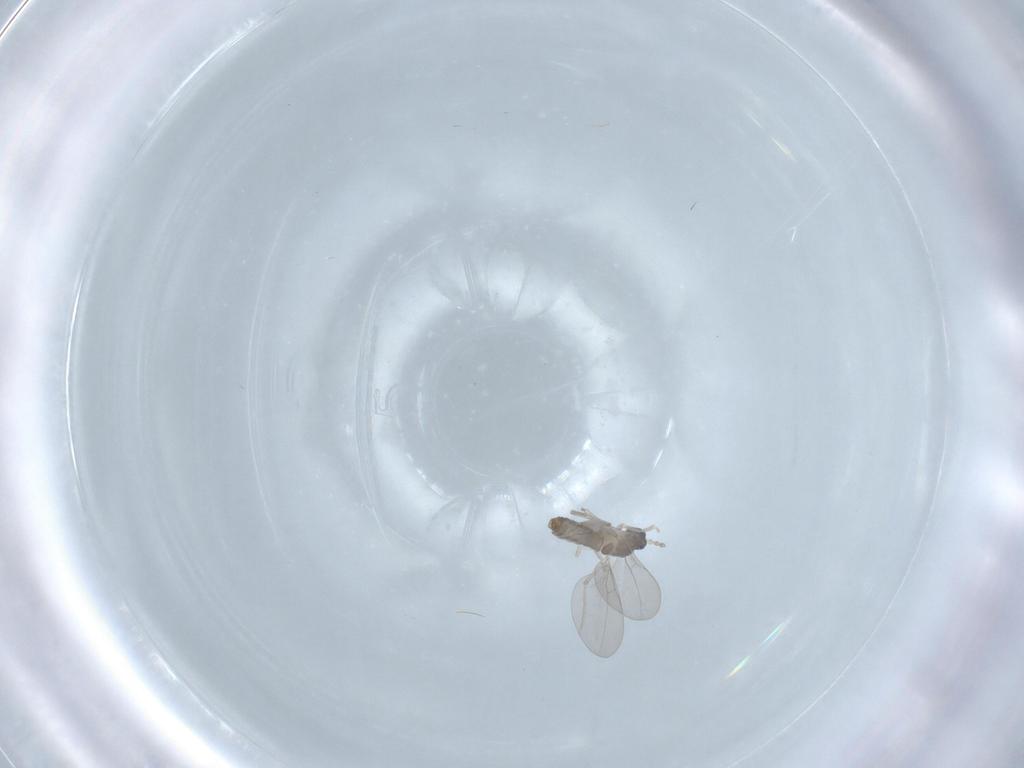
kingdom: Animalia
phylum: Arthropoda
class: Insecta
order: Diptera
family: Cecidomyiidae
